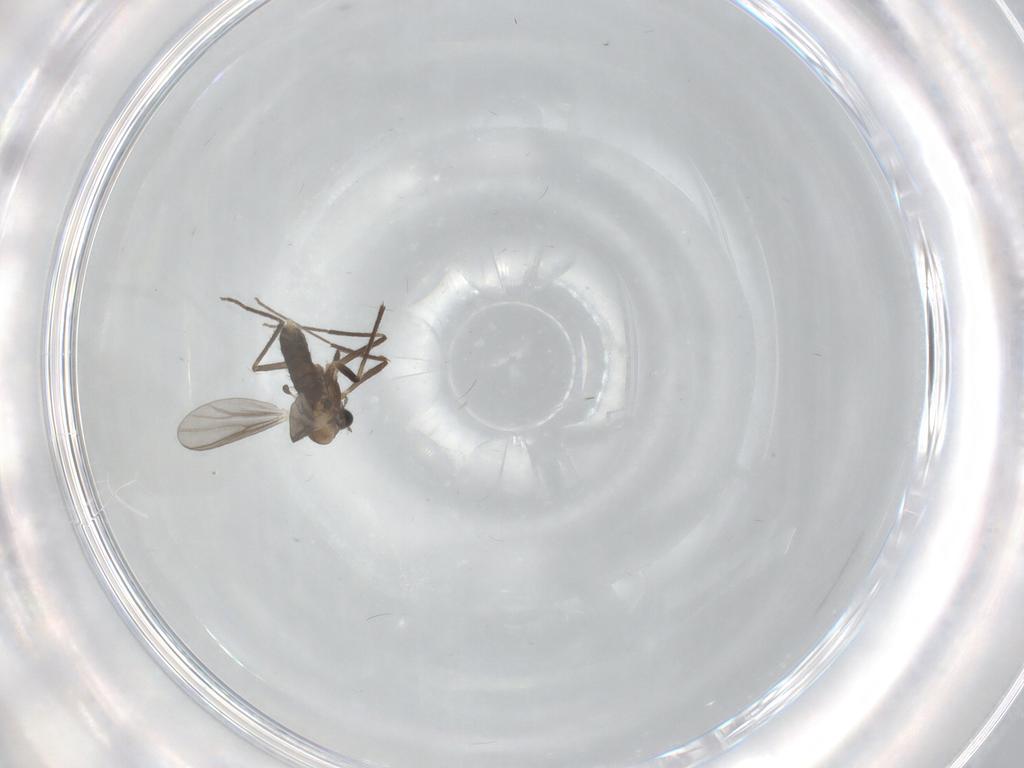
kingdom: Animalia
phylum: Arthropoda
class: Insecta
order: Diptera
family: Chironomidae
